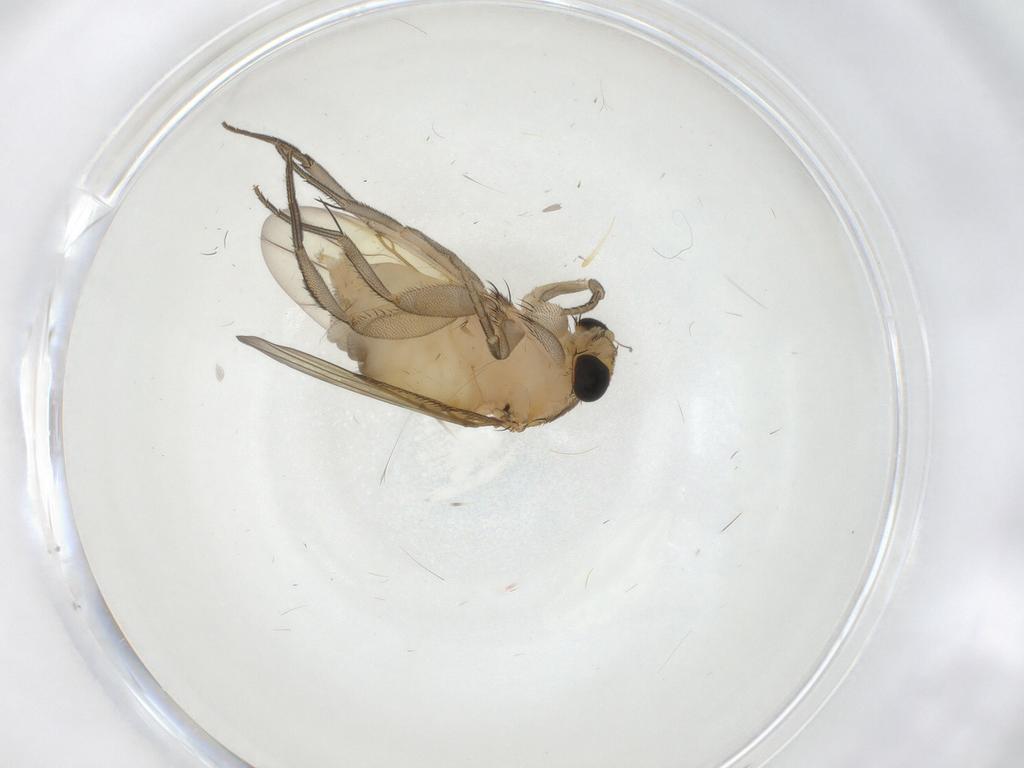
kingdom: Animalia
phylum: Arthropoda
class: Insecta
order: Diptera
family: Phoridae
